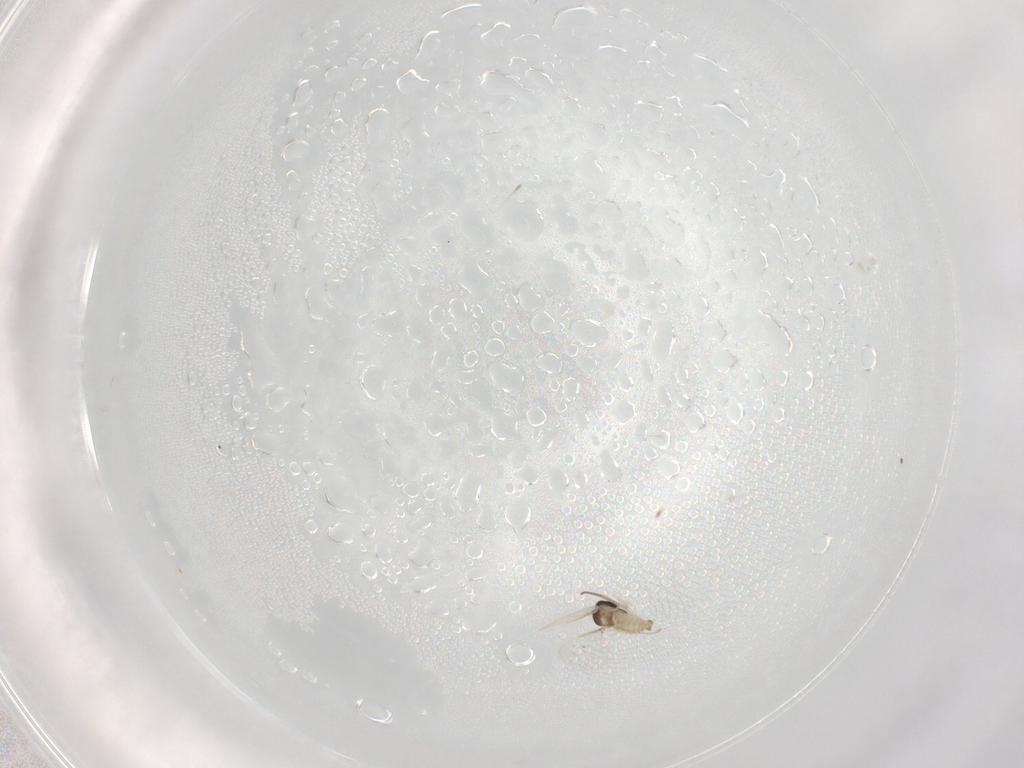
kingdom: Animalia
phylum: Arthropoda
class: Insecta
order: Diptera
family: Cecidomyiidae
